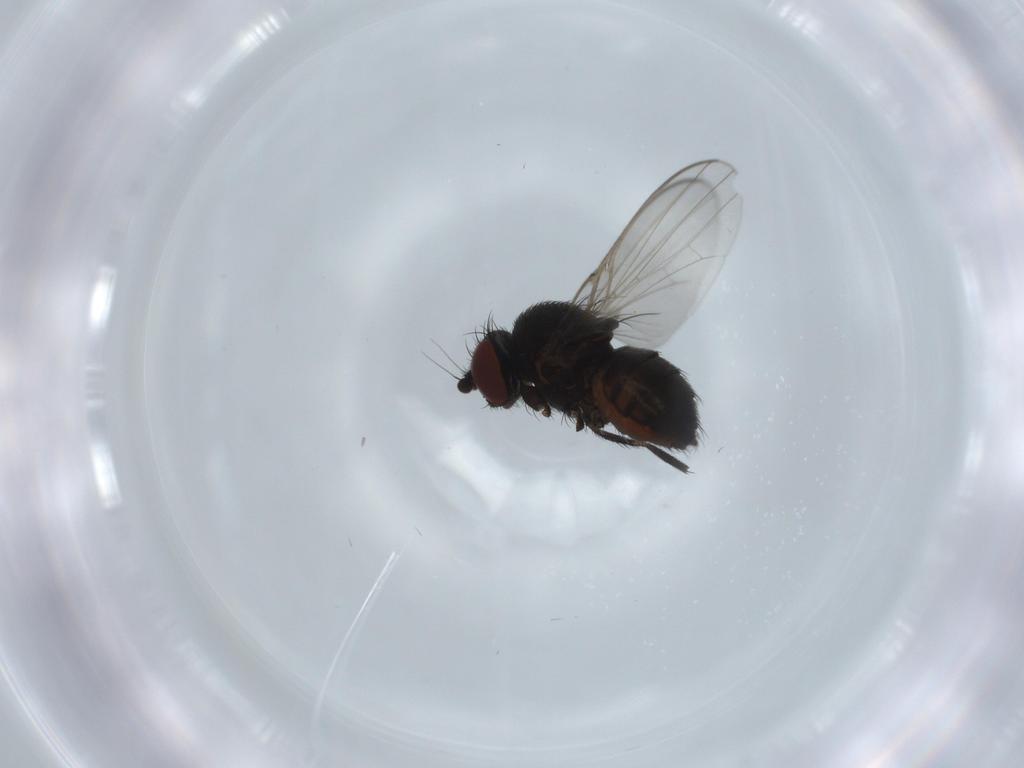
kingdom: Animalia
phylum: Arthropoda
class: Insecta
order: Diptera
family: Milichiidae
